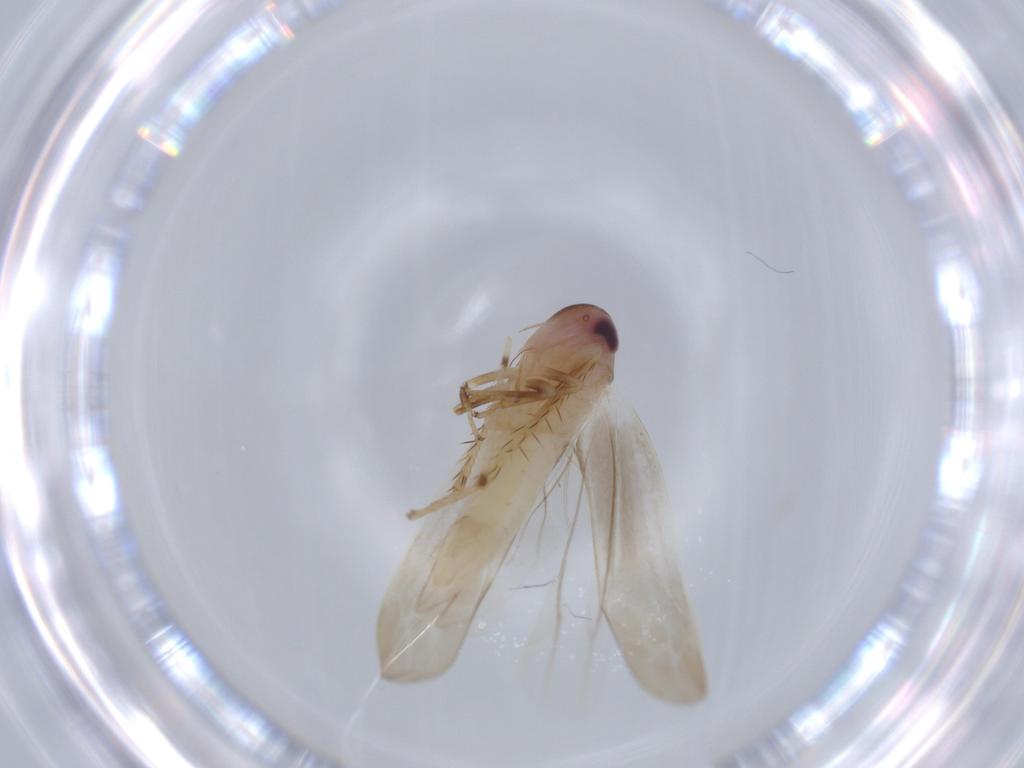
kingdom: Animalia
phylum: Arthropoda
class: Insecta
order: Hemiptera
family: Cicadellidae
